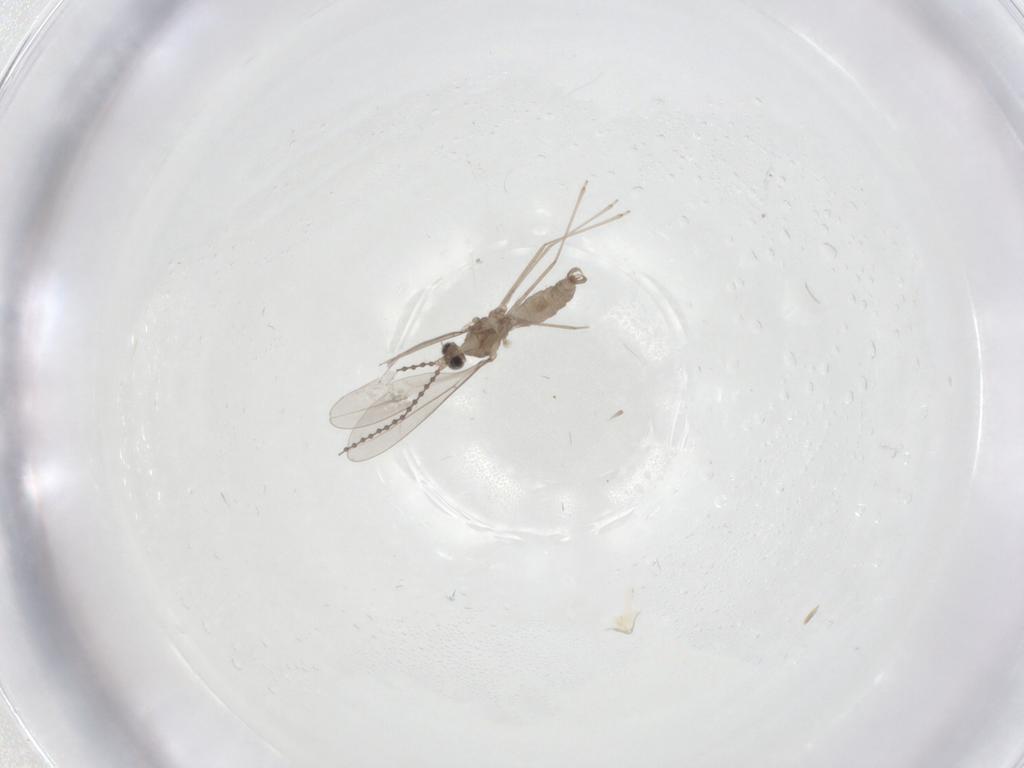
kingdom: Animalia
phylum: Arthropoda
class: Insecta
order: Diptera
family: Cecidomyiidae
